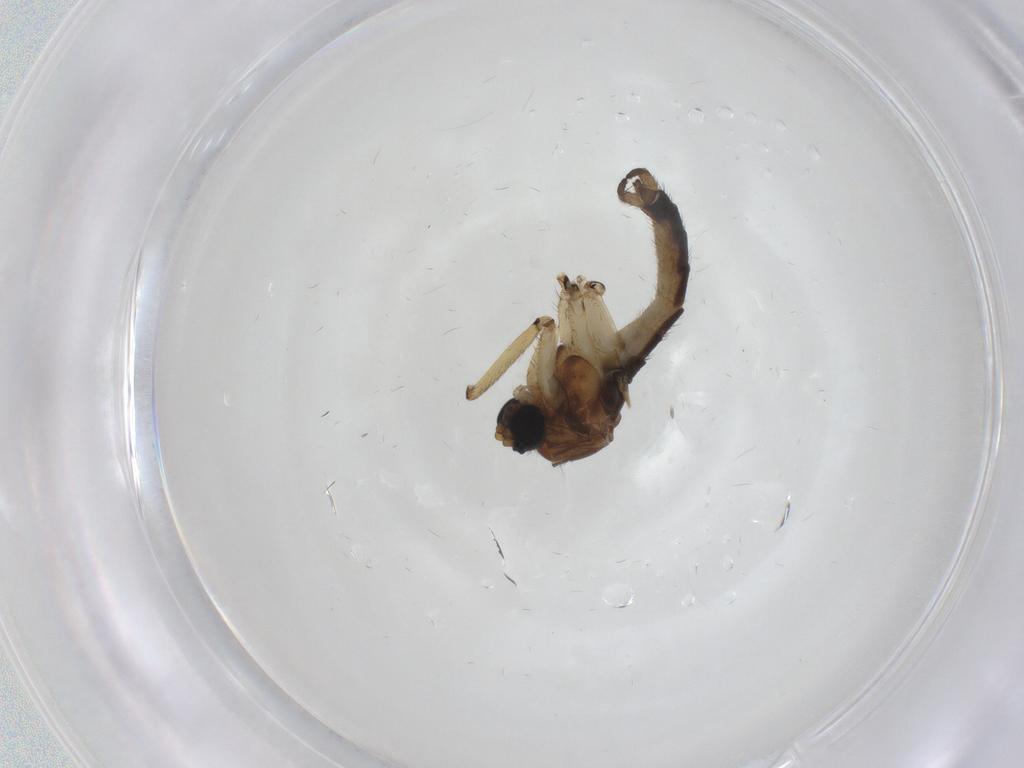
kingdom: Animalia
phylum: Arthropoda
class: Insecta
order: Diptera
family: Sciaridae
